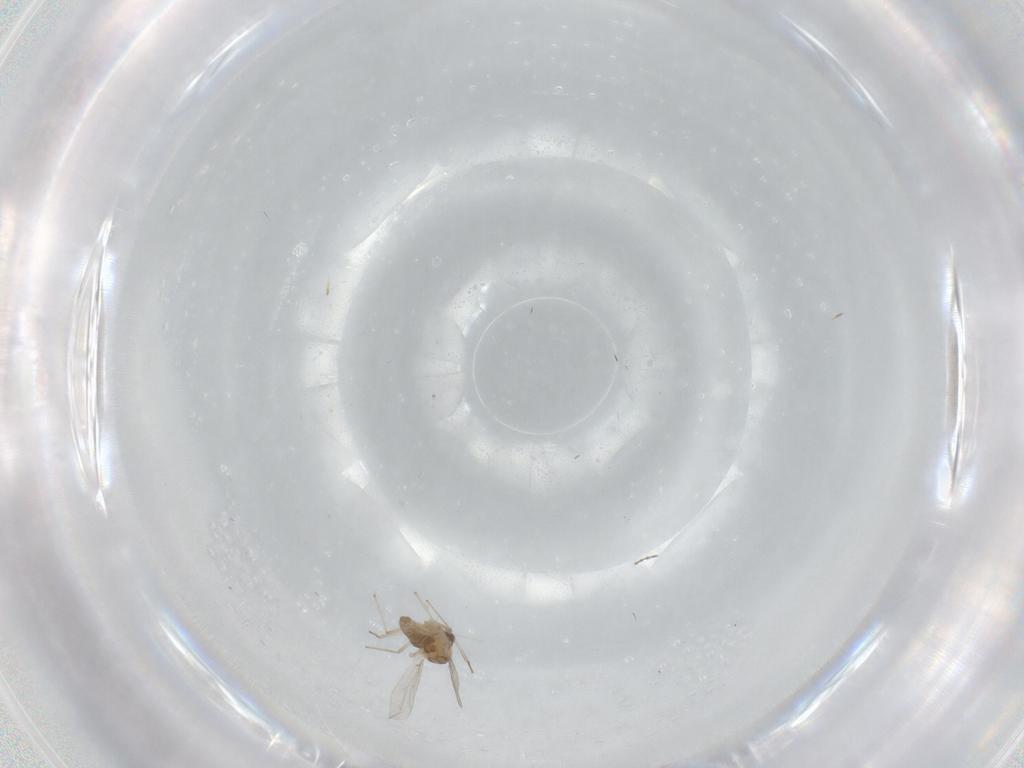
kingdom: Animalia
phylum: Arthropoda
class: Insecta
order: Diptera
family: Chironomidae
